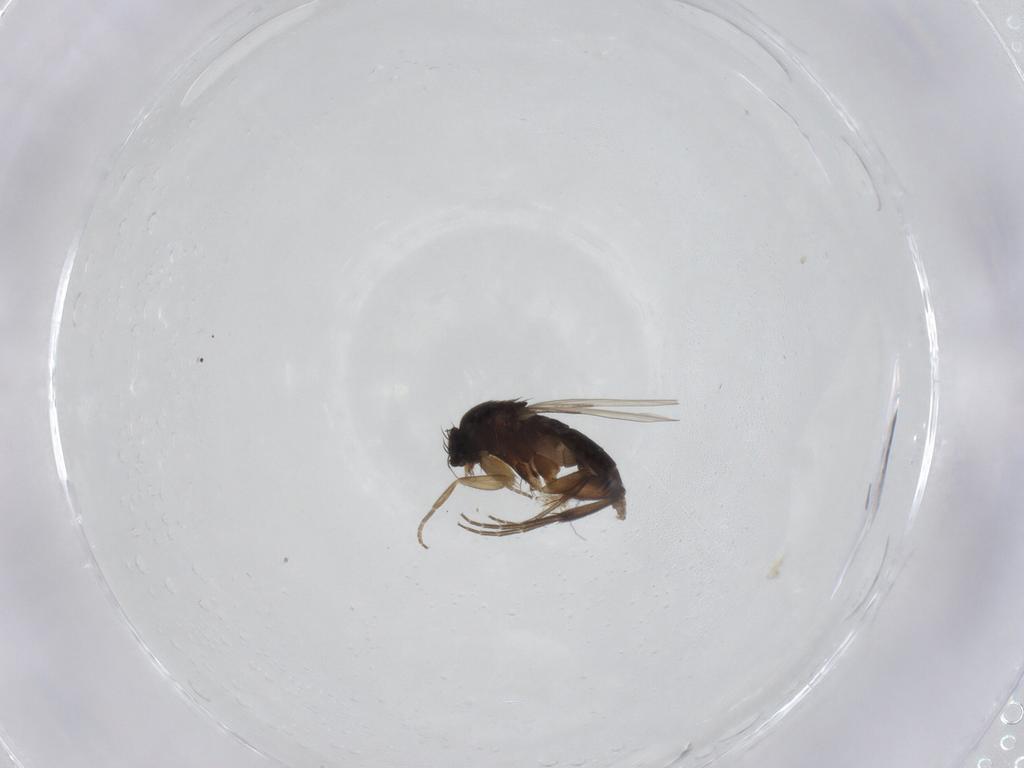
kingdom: Animalia
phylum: Arthropoda
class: Insecta
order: Diptera
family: Phoridae
